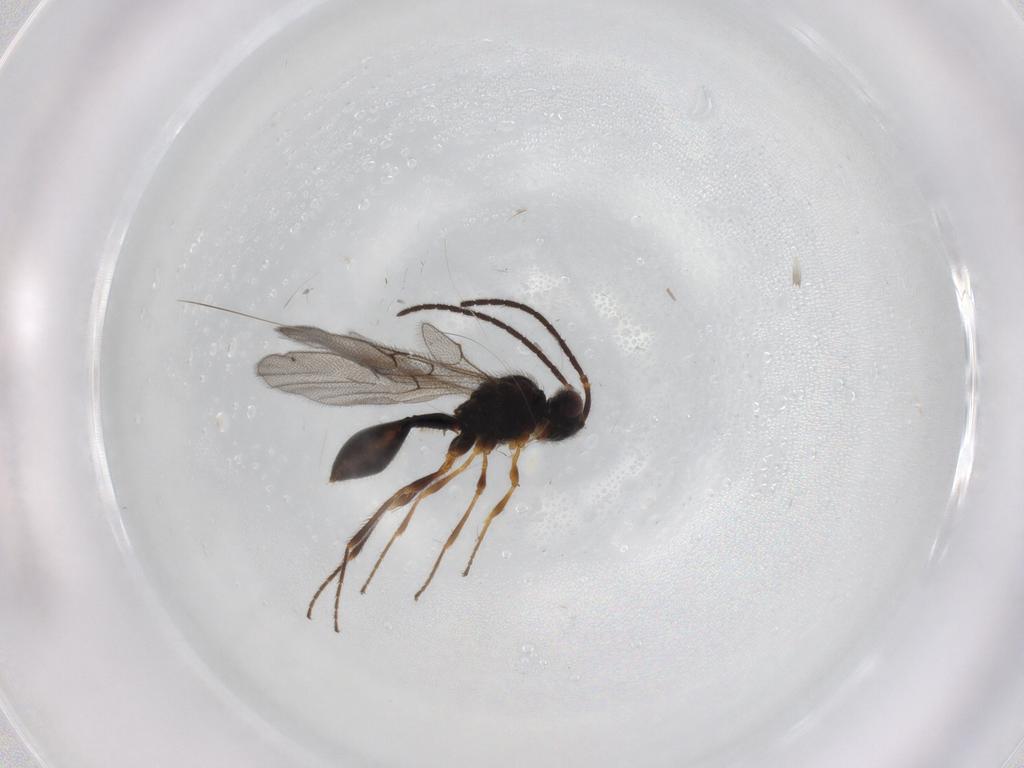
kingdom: Animalia
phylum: Arthropoda
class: Insecta
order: Hymenoptera
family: Diapriidae
